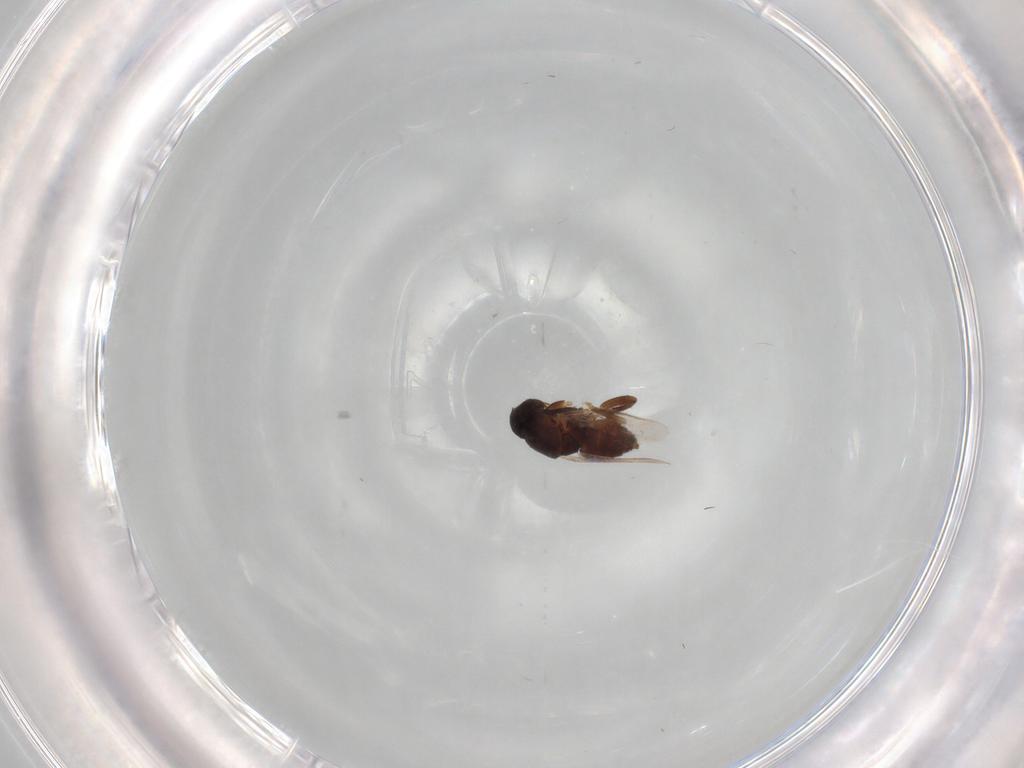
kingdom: Animalia
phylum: Arthropoda
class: Insecta
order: Diptera
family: Sphaeroceridae
